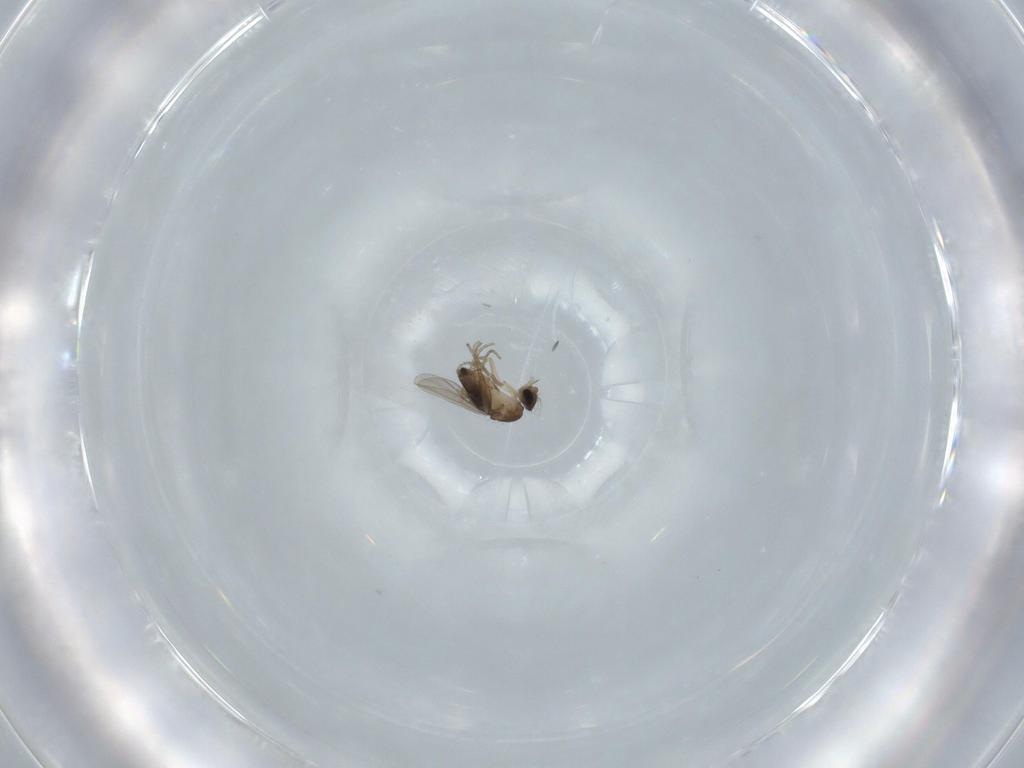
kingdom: Animalia
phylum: Arthropoda
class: Insecta
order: Diptera
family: Phoridae
